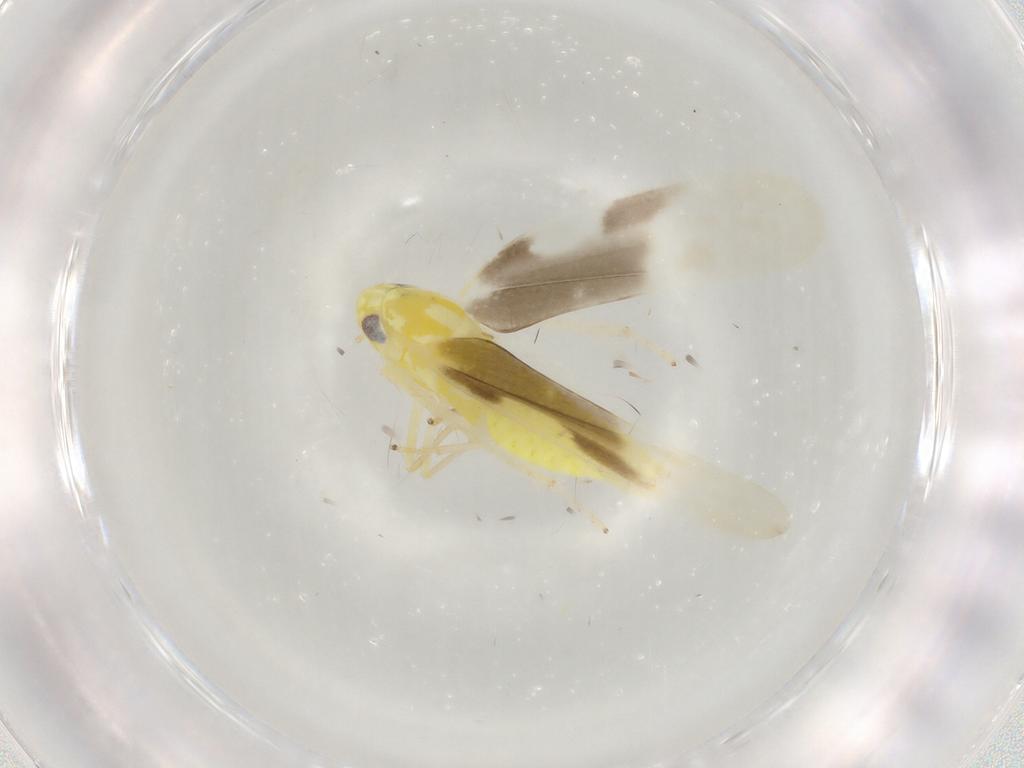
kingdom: Animalia
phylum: Arthropoda
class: Insecta
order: Hemiptera
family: Cicadellidae
